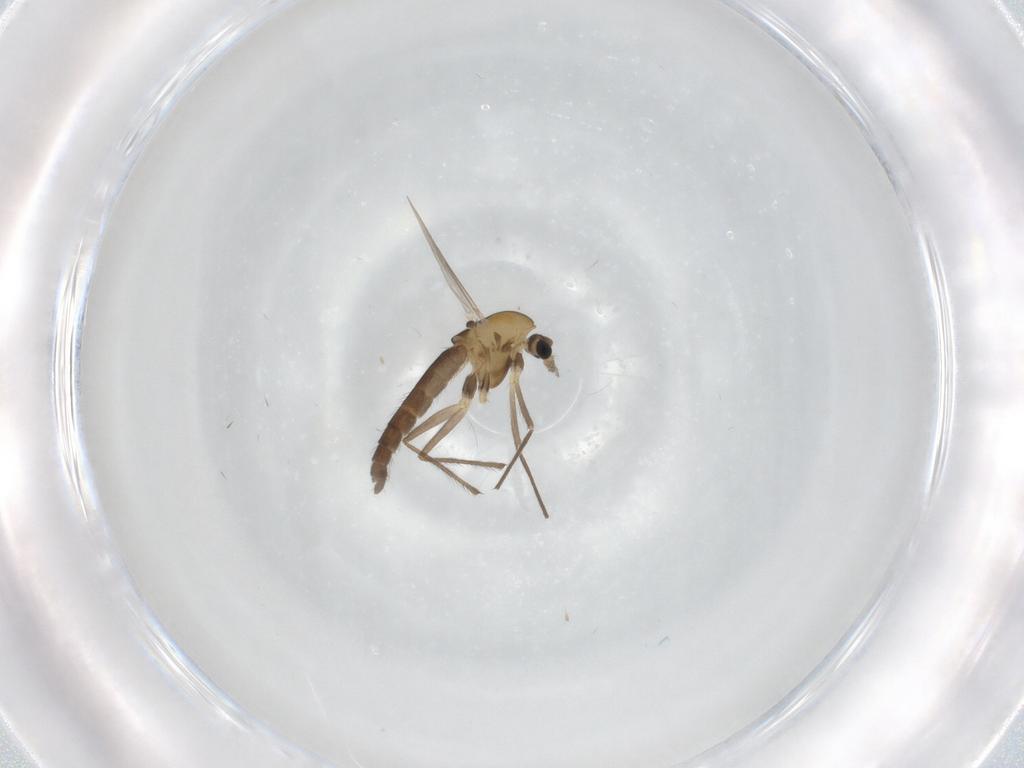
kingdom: Animalia
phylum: Arthropoda
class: Insecta
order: Diptera
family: Chironomidae
